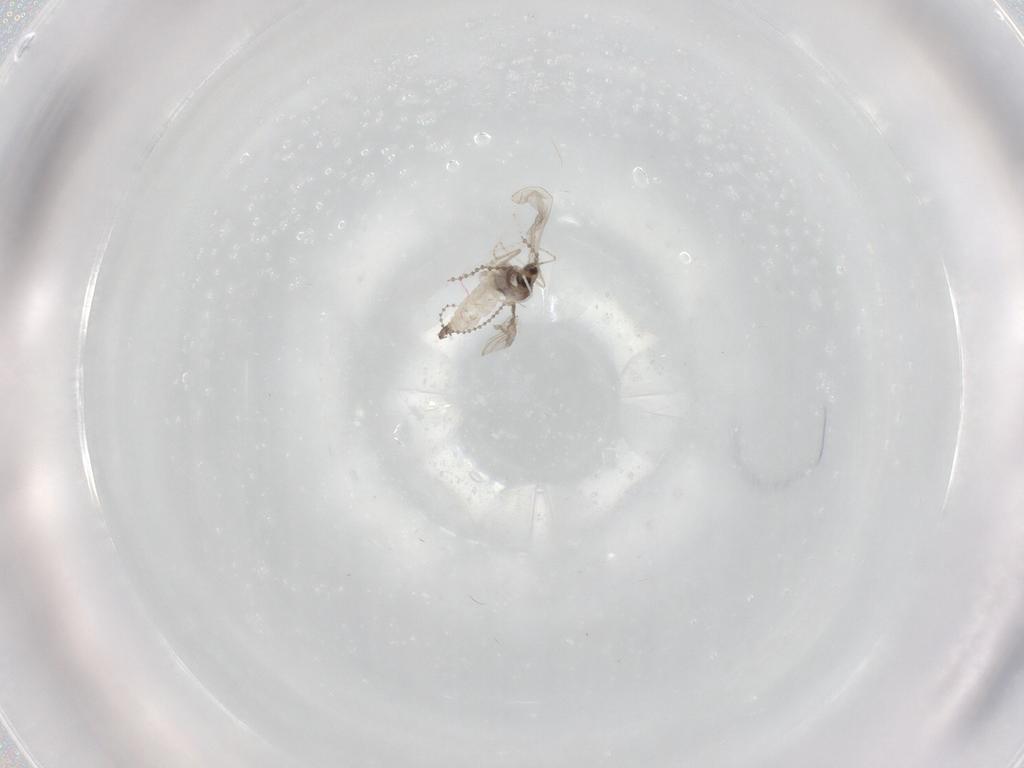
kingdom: Animalia
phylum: Arthropoda
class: Insecta
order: Diptera
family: Cecidomyiidae
